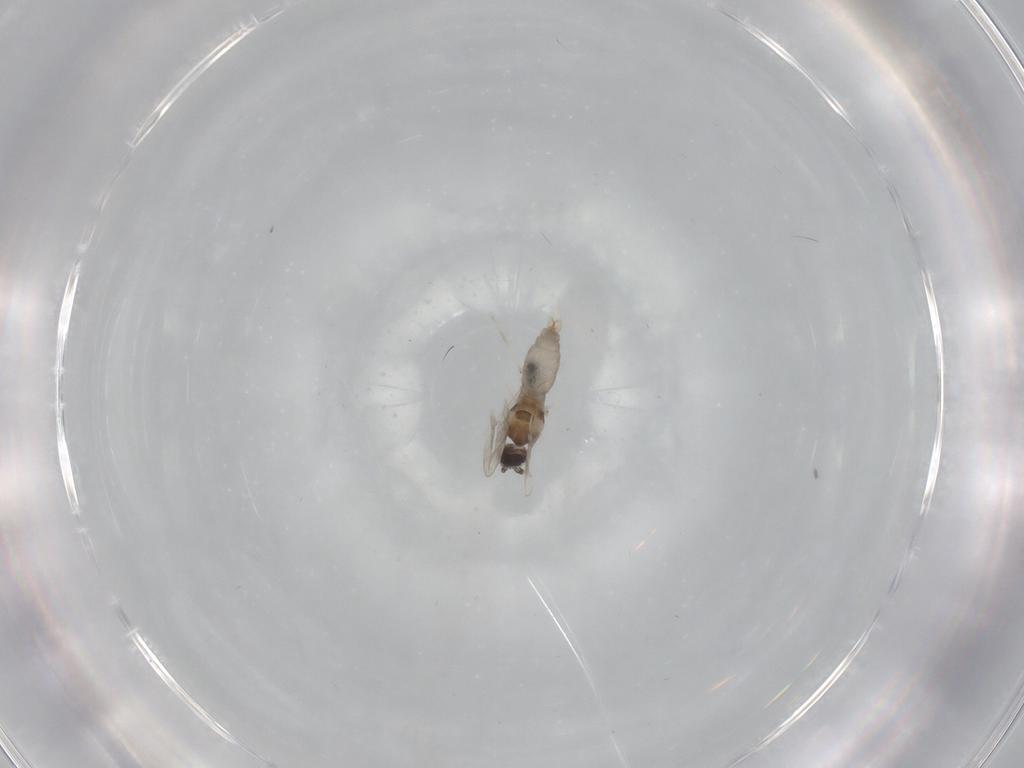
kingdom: Animalia
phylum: Arthropoda
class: Insecta
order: Diptera
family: Cecidomyiidae
